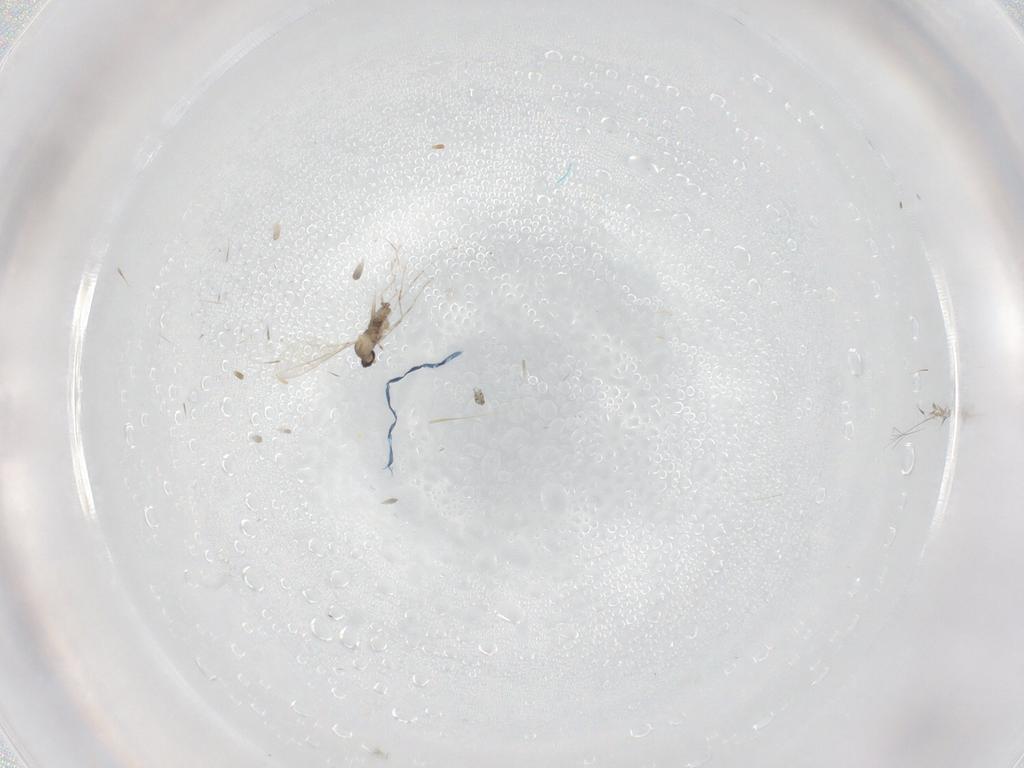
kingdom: Animalia
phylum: Arthropoda
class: Insecta
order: Diptera
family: Cecidomyiidae
